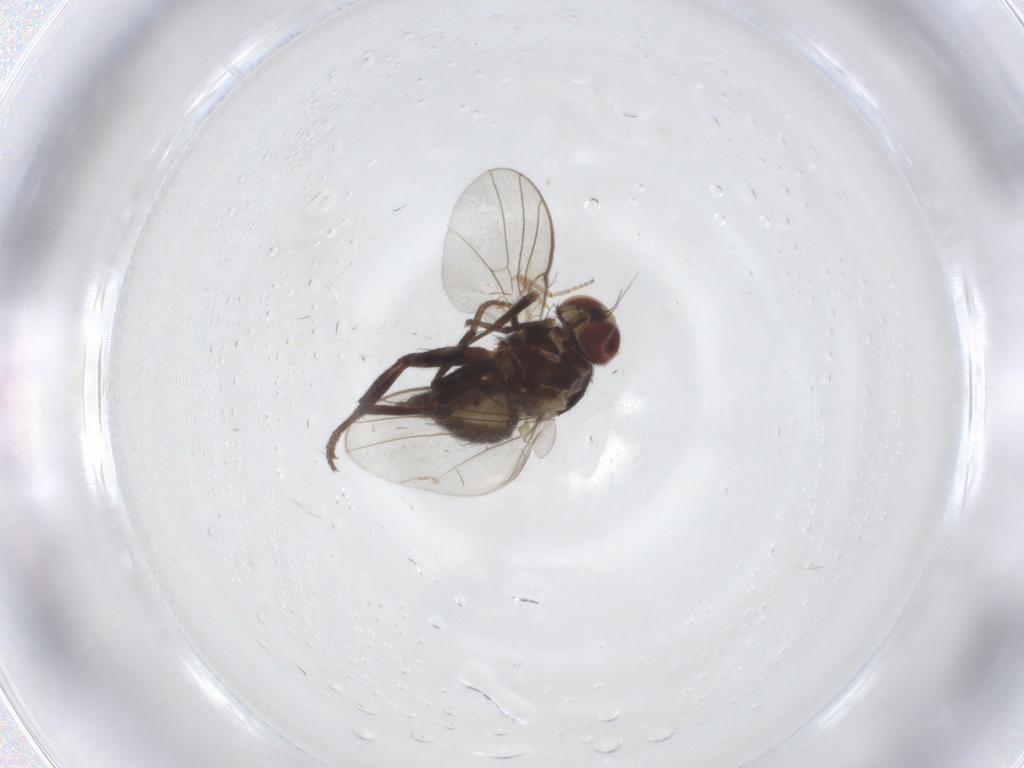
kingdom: Animalia
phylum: Arthropoda
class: Insecta
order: Diptera
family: Agromyzidae
